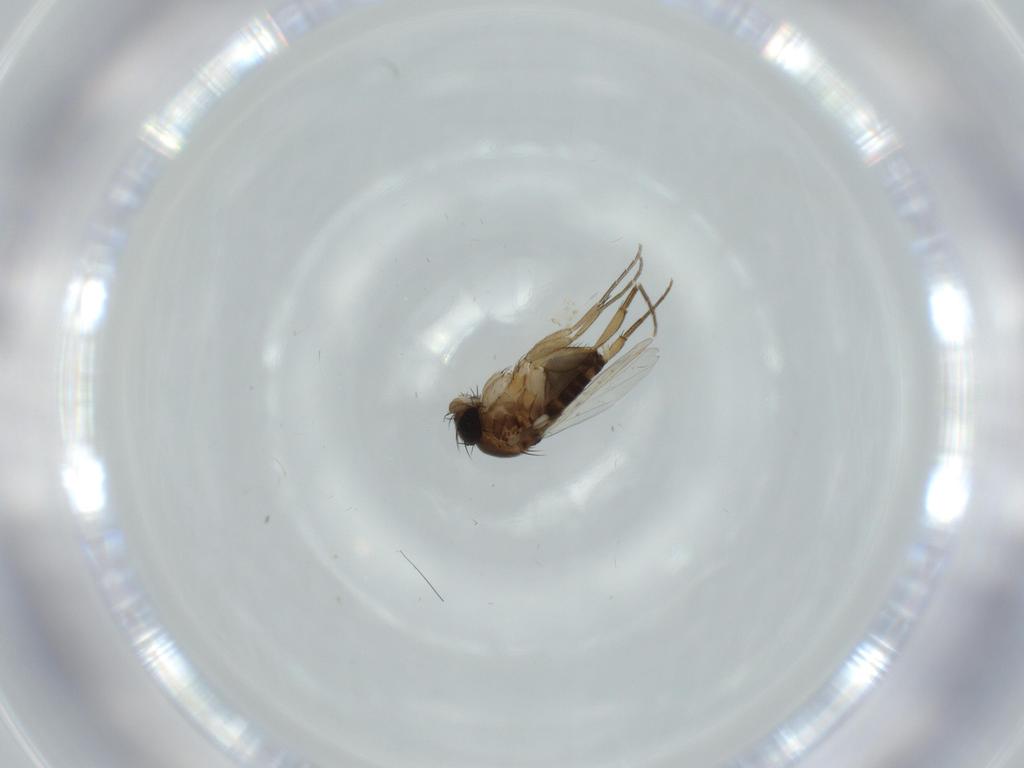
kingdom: Animalia
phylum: Arthropoda
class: Insecta
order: Diptera
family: Phoridae
